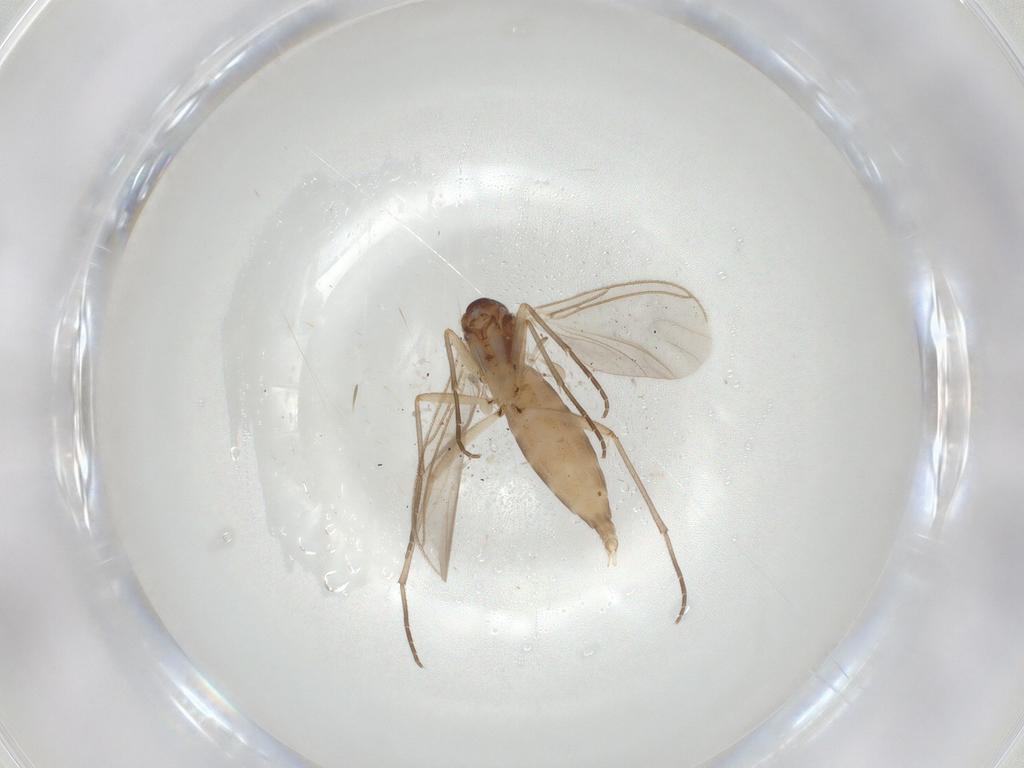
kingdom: Animalia
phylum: Arthropoda
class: Insecta
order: Diptera
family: Sciaridae
